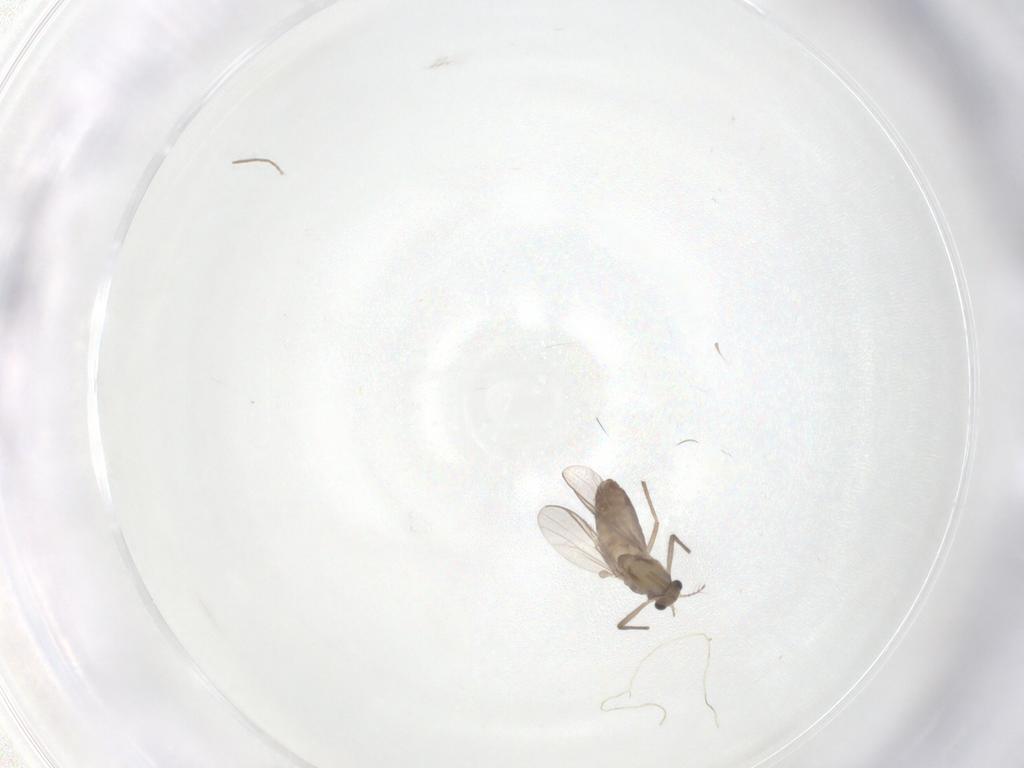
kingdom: Animalia
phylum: Arthropoda
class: Insecta
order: Diptera
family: Chironomidae
